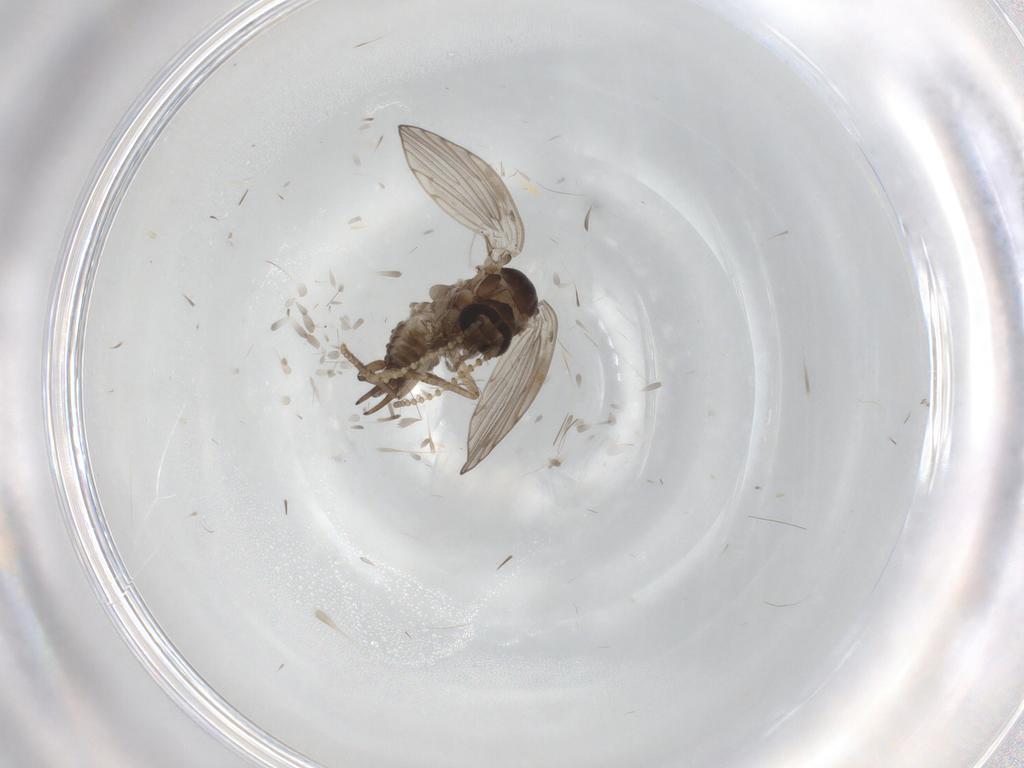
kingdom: Animalia
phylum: Arthropoda
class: Insecta
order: Diptera
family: Ceratopogonidae
